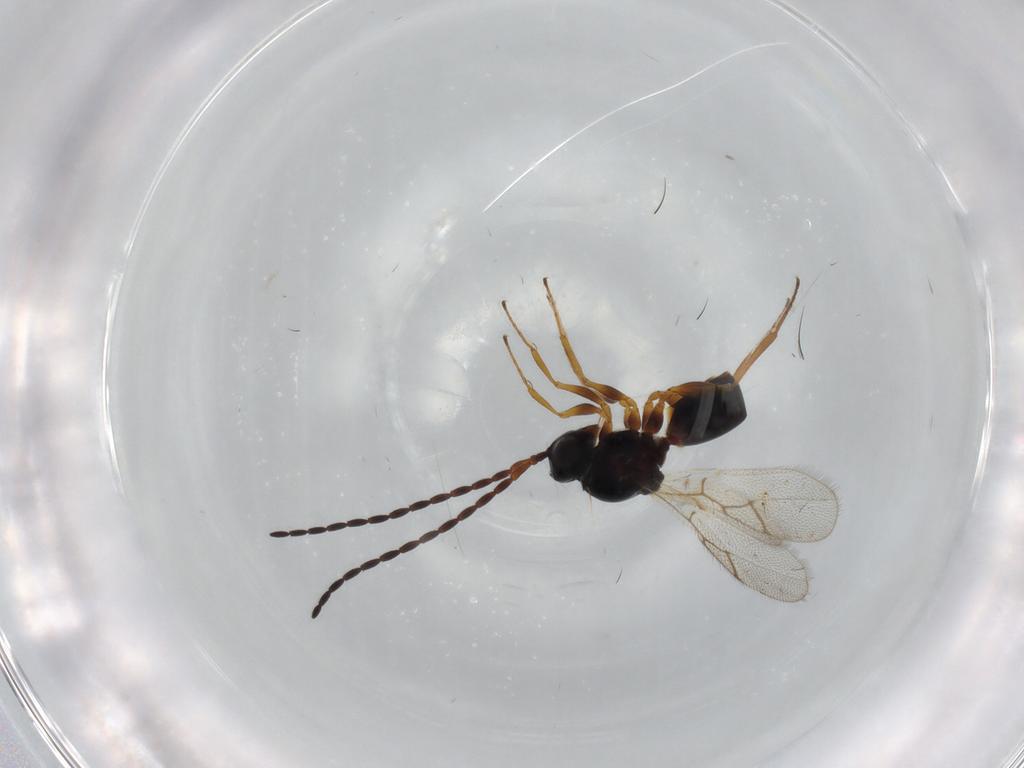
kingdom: Animalia
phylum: Arthropoda
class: Insecta
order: Hymenoptera
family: Figitidae
